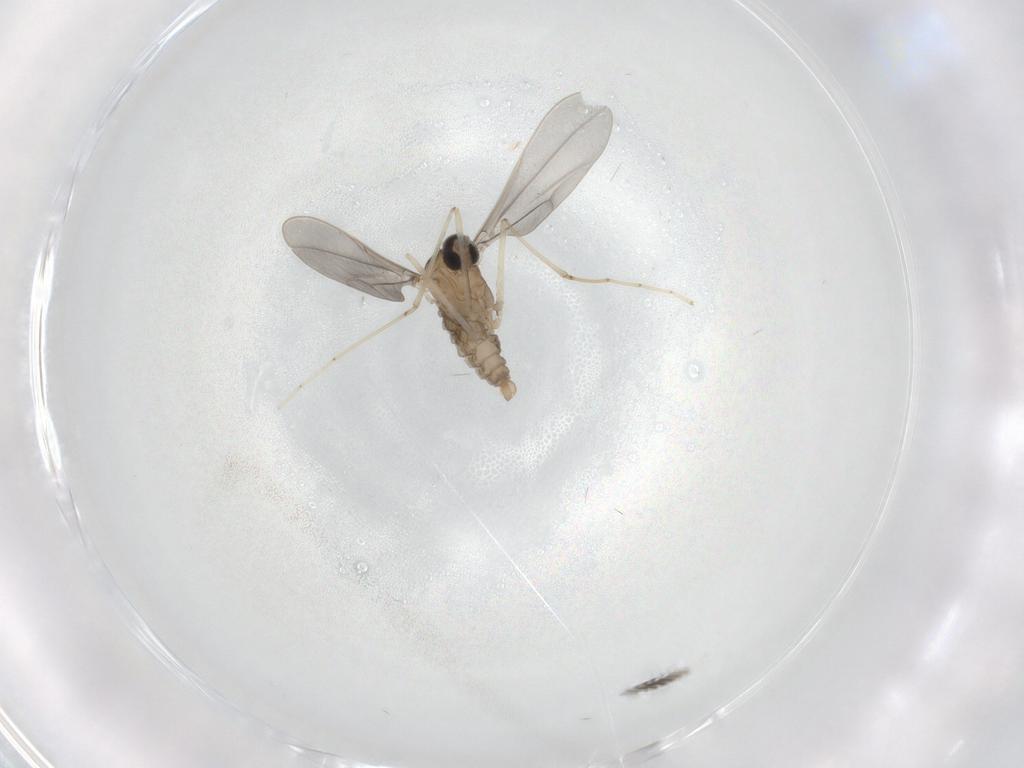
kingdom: Animalia
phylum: Arthropoda
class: Insecta
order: Diptera
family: Cecidomyiidae
